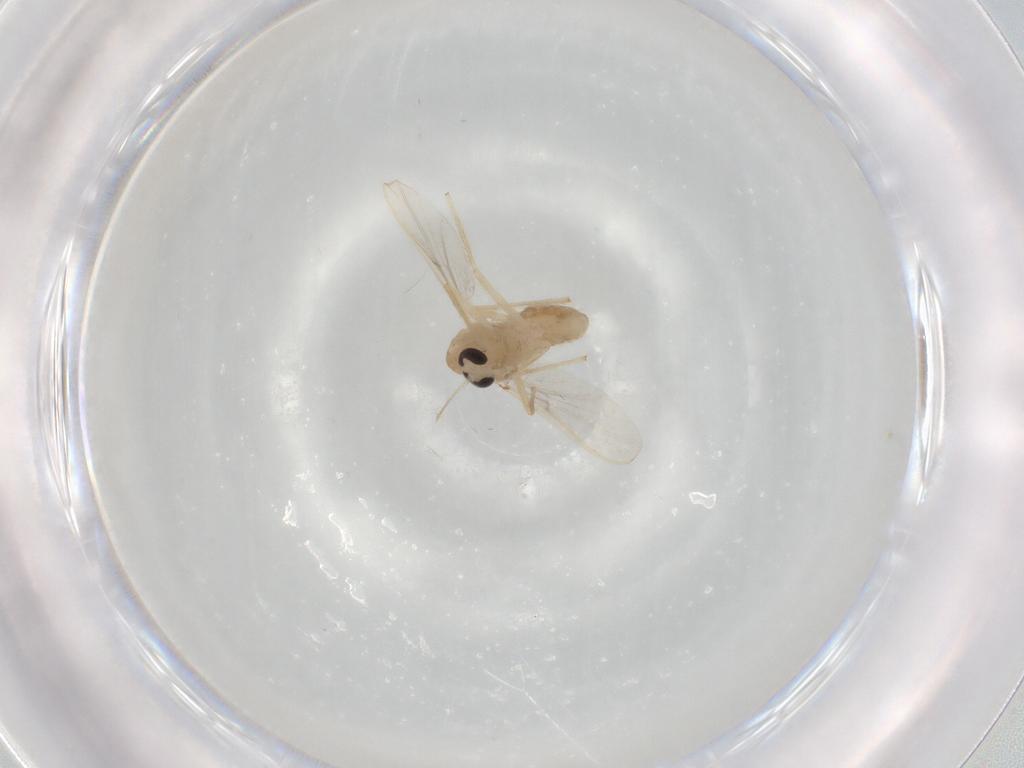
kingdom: Animalia
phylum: Arthropoda
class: Insecta
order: Diptera
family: Chironomidae
